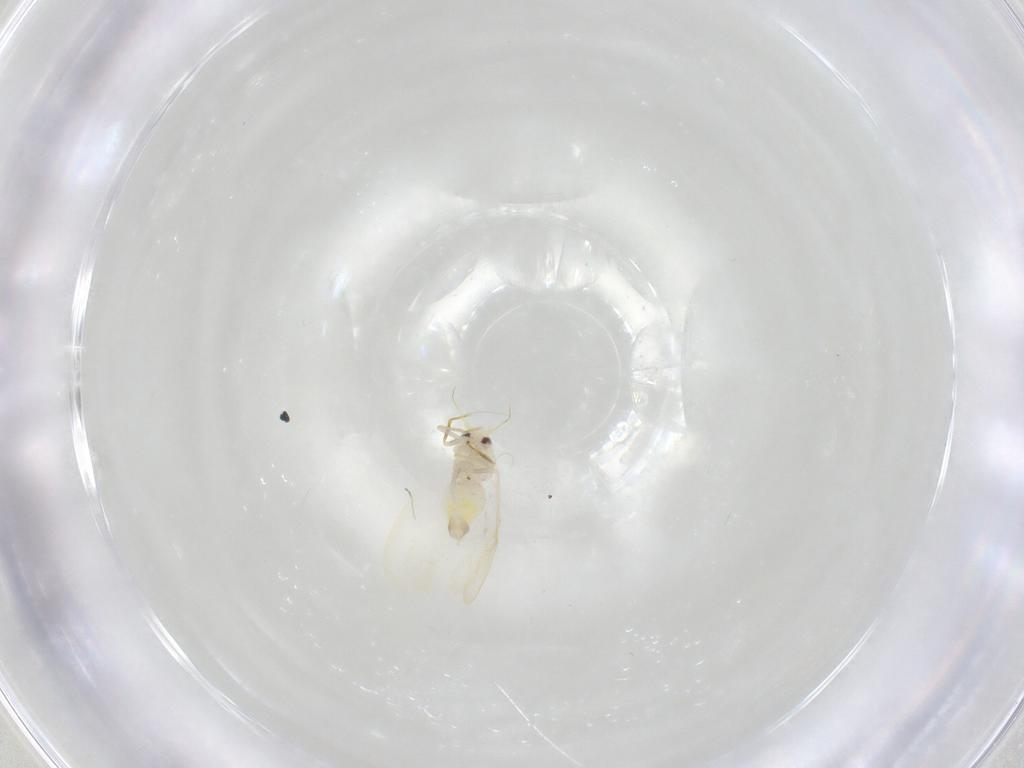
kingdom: Animalia
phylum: Arthropoda
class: Insecta
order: Hemiptera
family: Aleyrodidae
